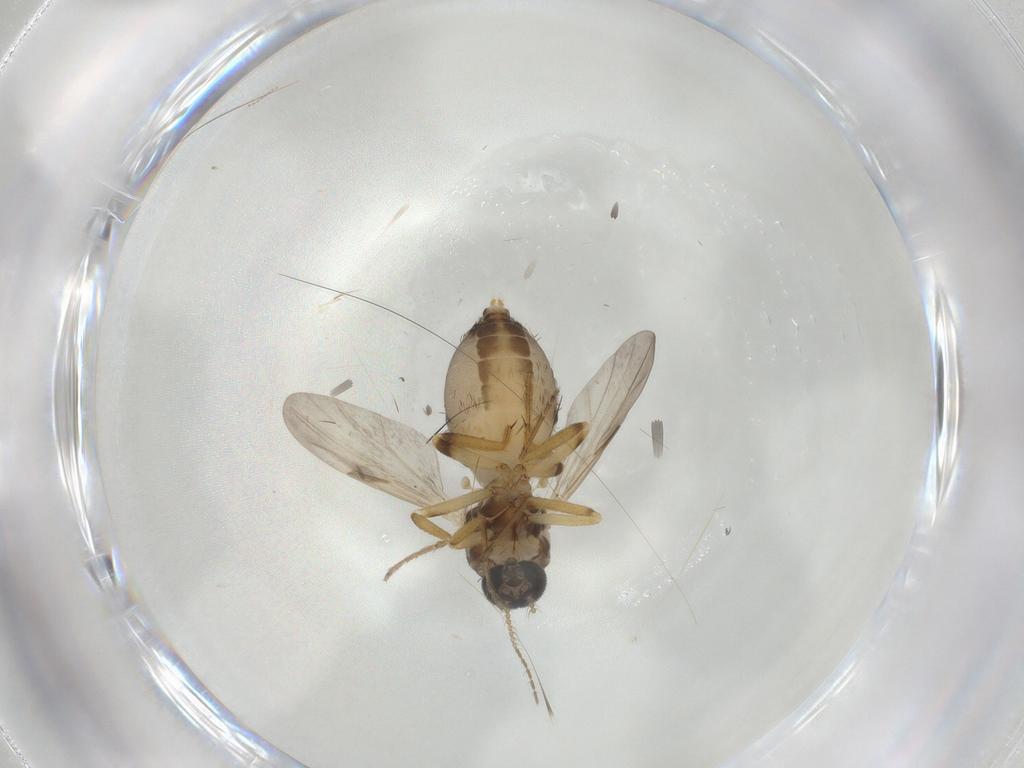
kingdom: Animalia
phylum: Arthropoda
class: Insecta
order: Diptera
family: Ceratopogonidae
